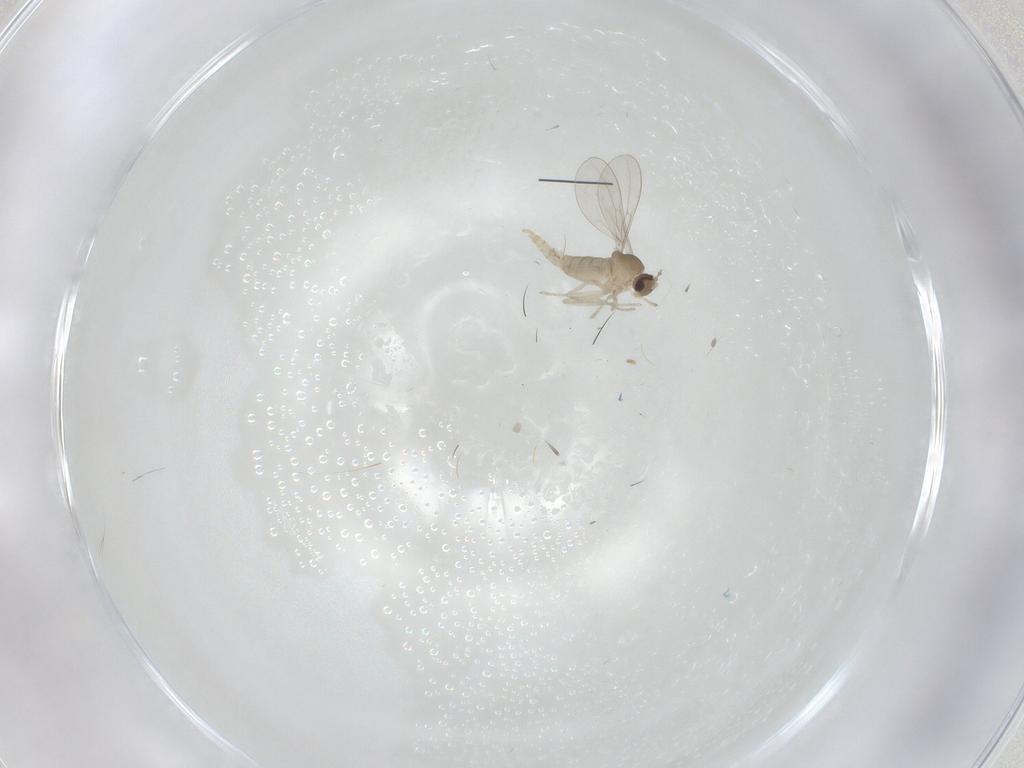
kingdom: Animalia
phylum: Arthropoda
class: Insecta
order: Diptera
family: Cecidomyiidae
